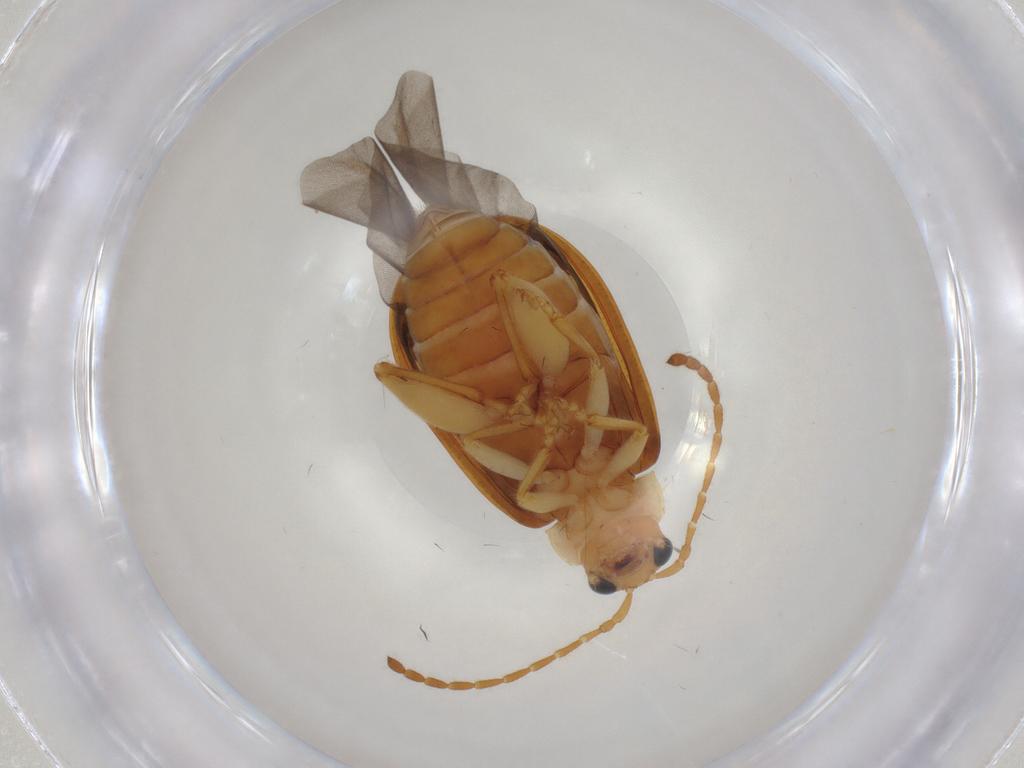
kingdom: Animalia
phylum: Arthropoda
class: Insecta
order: Coleoptera
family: Chrysomelidae
